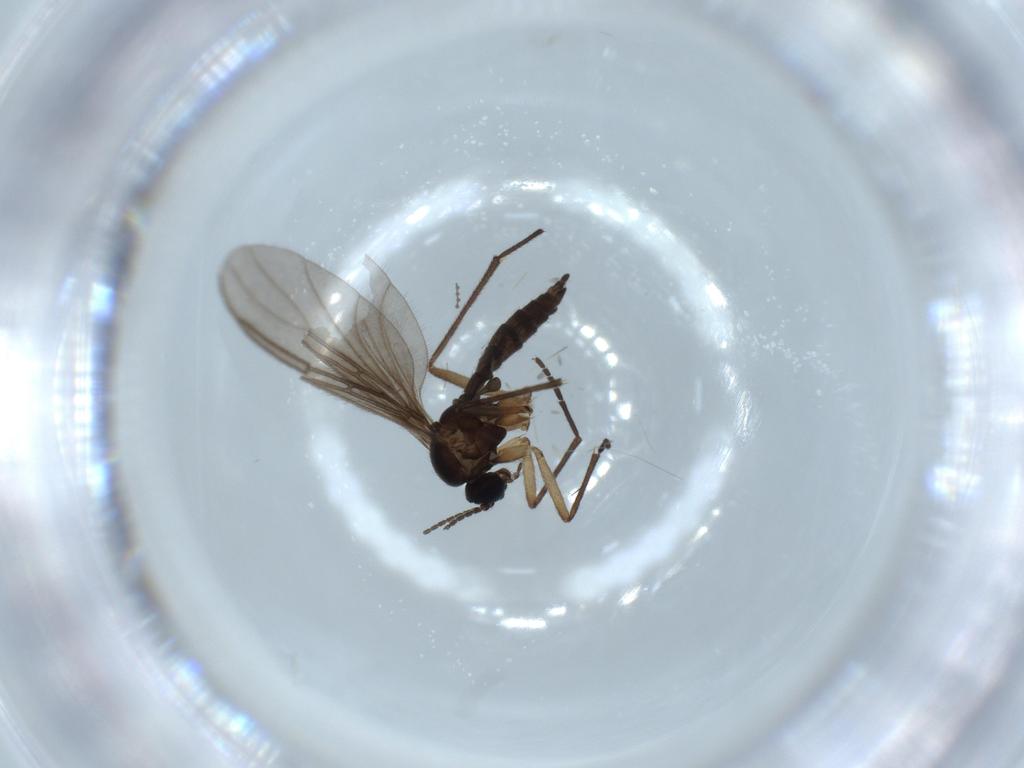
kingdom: Animalia
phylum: Arthropoda
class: Insecta
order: Diptera
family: Sciaridae
